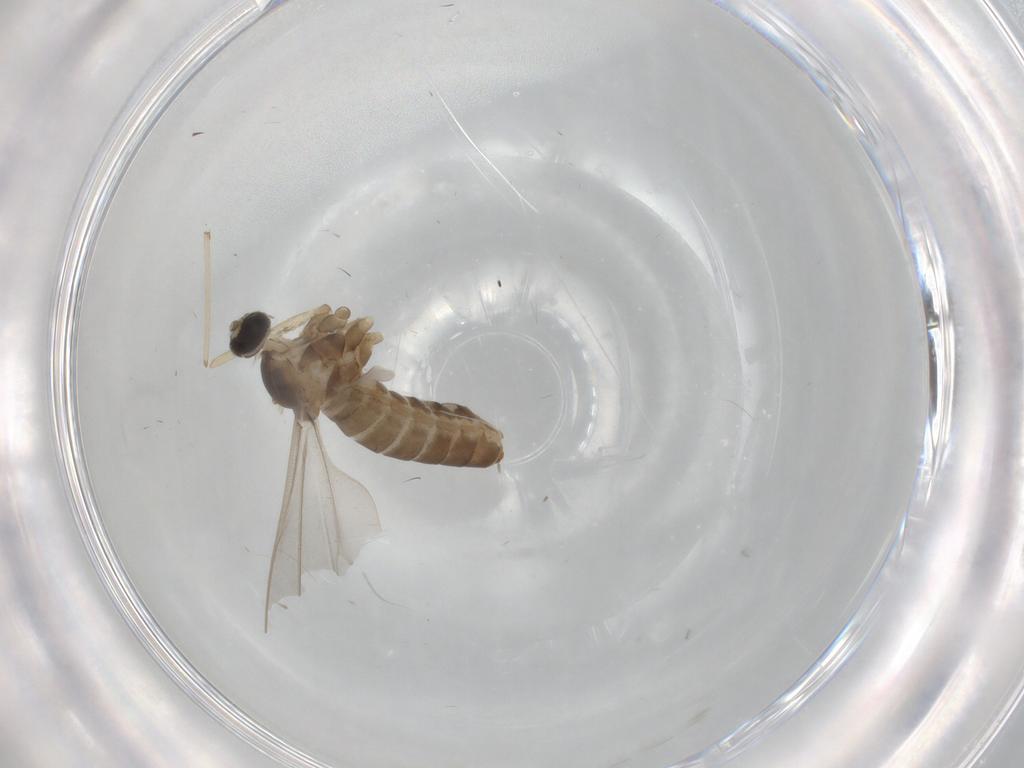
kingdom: Animalia
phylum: Arthropoda
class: Insecta
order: Diptera
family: Cecidomyiidae
